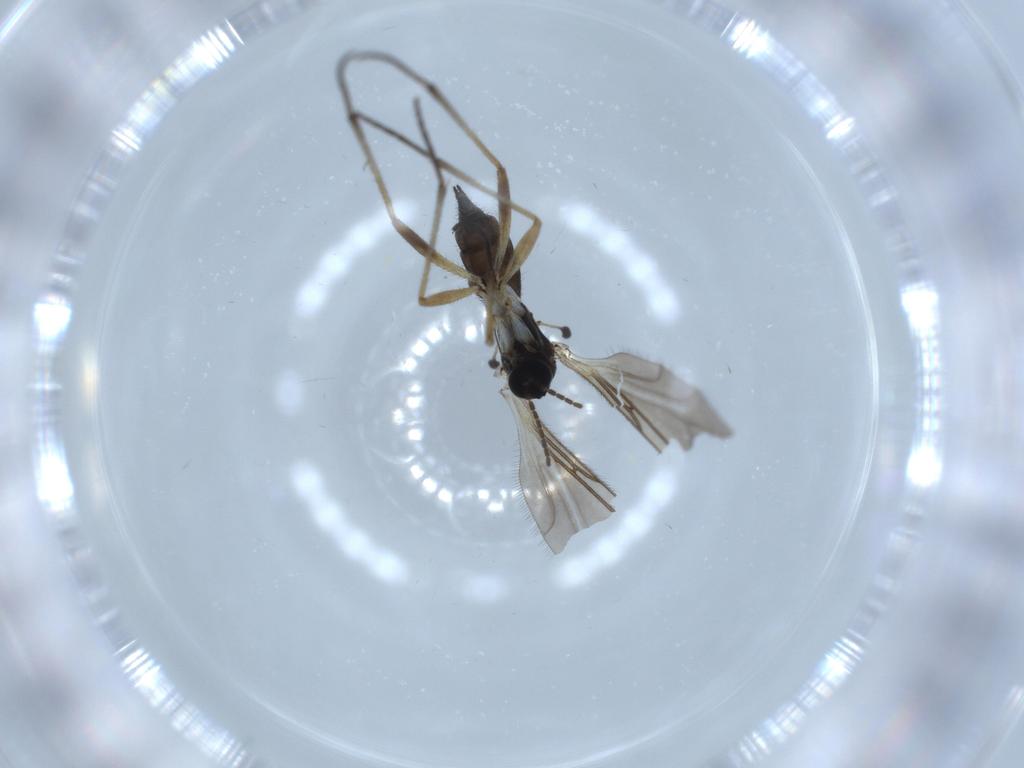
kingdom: Animalia
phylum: Arthropoda
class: Insecta
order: Diptera
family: Sciaridae
